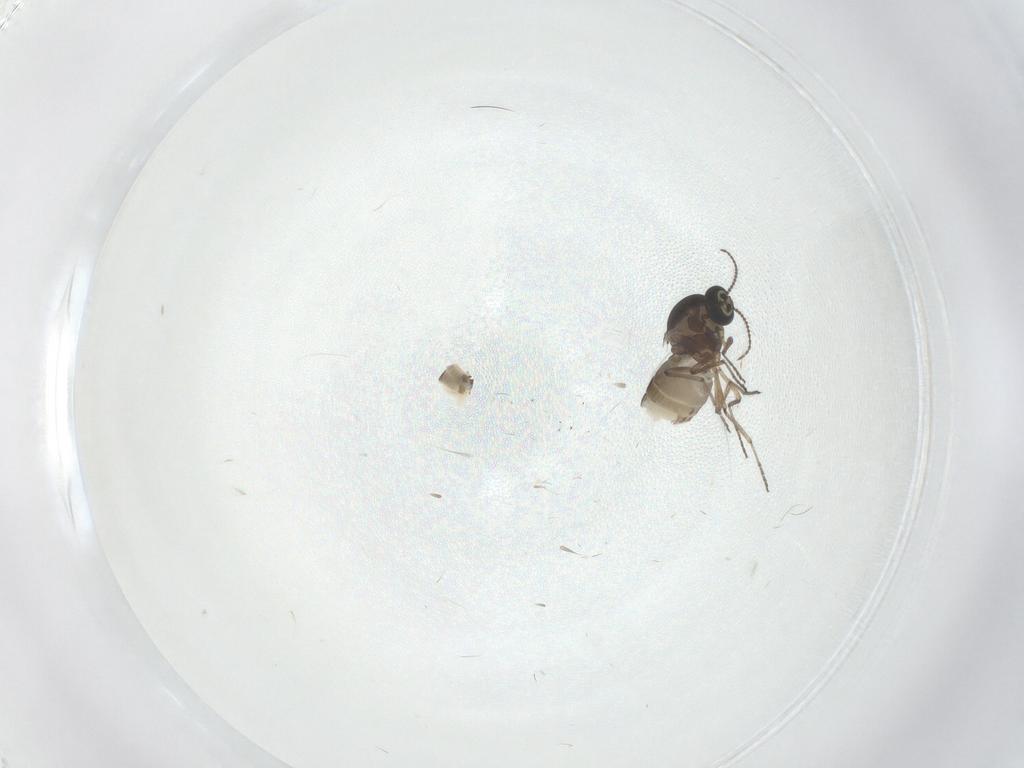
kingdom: Animalia
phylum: Arthropoda
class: Insecta
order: Diptera
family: Ceratopogonidae
